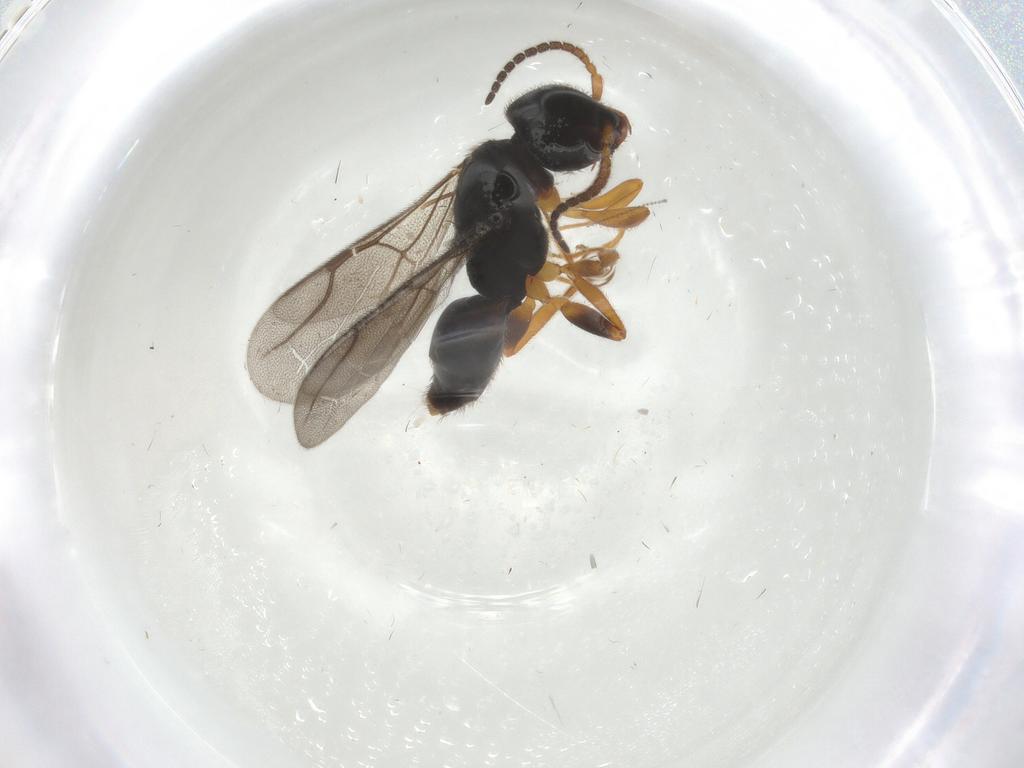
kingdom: Animalia
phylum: Arthropoda
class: Insecta
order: Hymenoptera
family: Bethylidae
